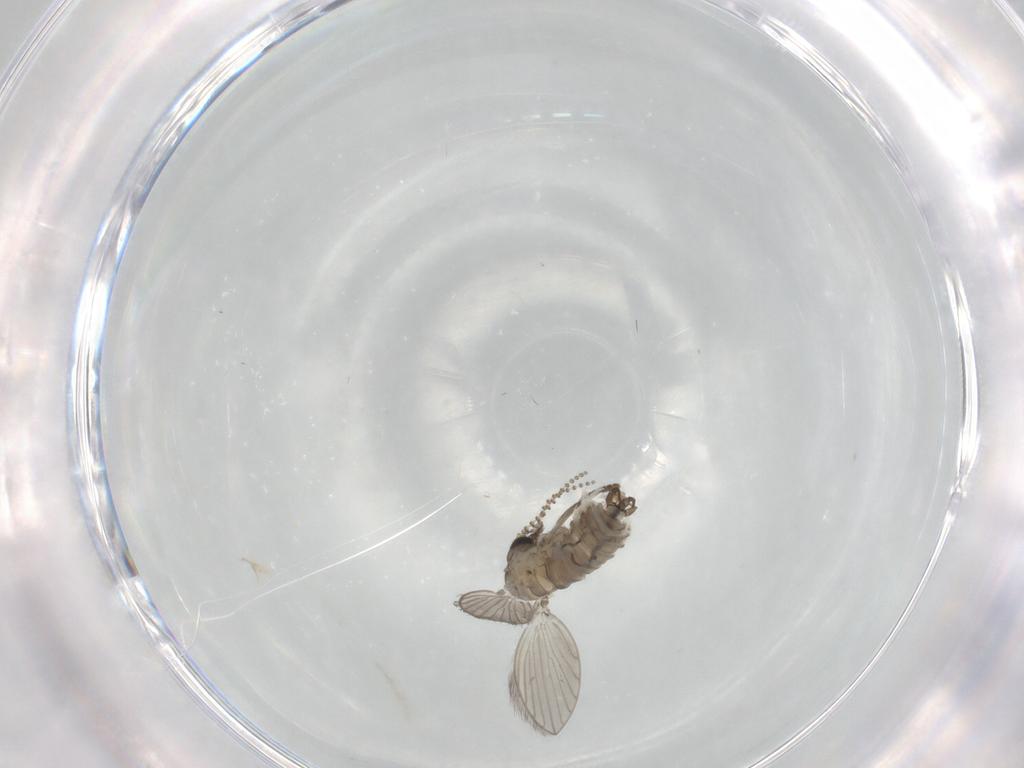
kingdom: Animalia
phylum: Arthropoda
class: Insecta
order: Diptera
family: Psychodidae
